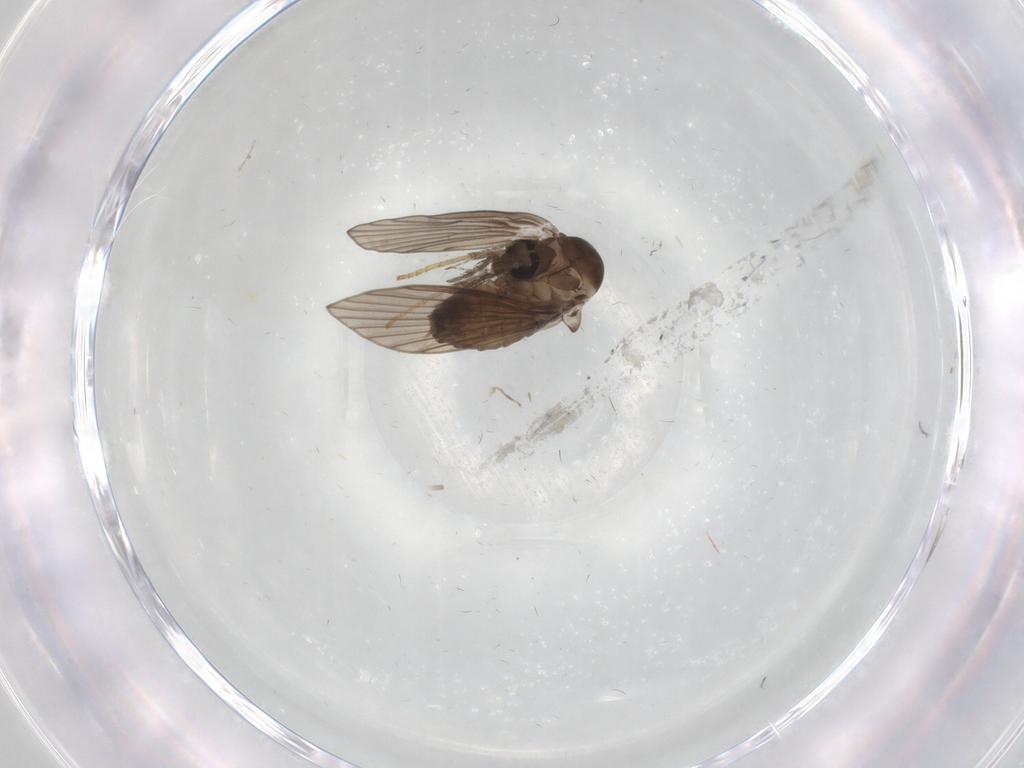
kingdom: Animalia
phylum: Arthropoda
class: Insecta
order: Diptera
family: Psychodidae
